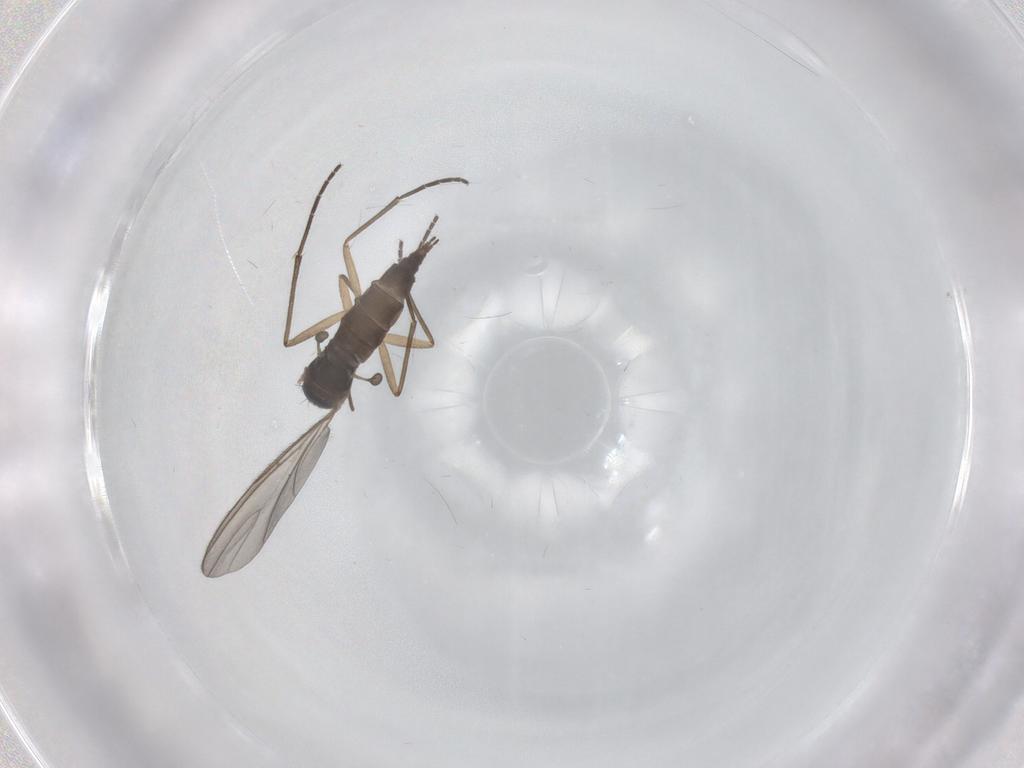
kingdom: Animalia
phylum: Arthropoda
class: Insecta
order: Diptera
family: Sciaridae
